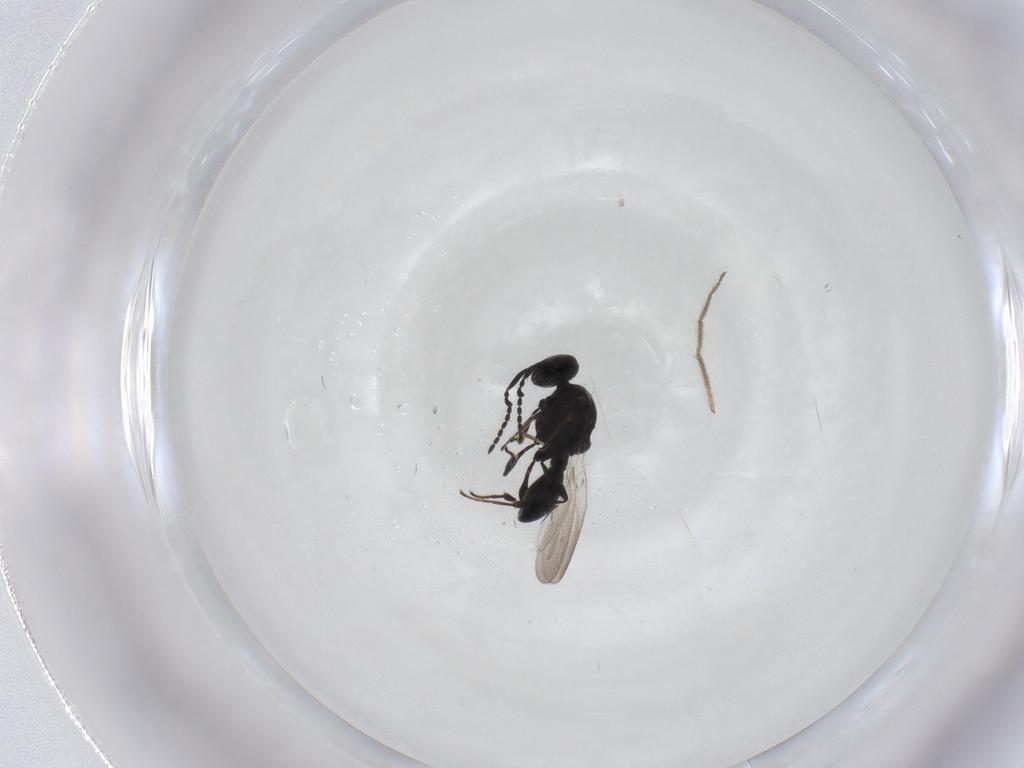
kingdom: Animalia
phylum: Arthropoda
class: Insecta
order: Hymenoptera
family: Platygastridae
